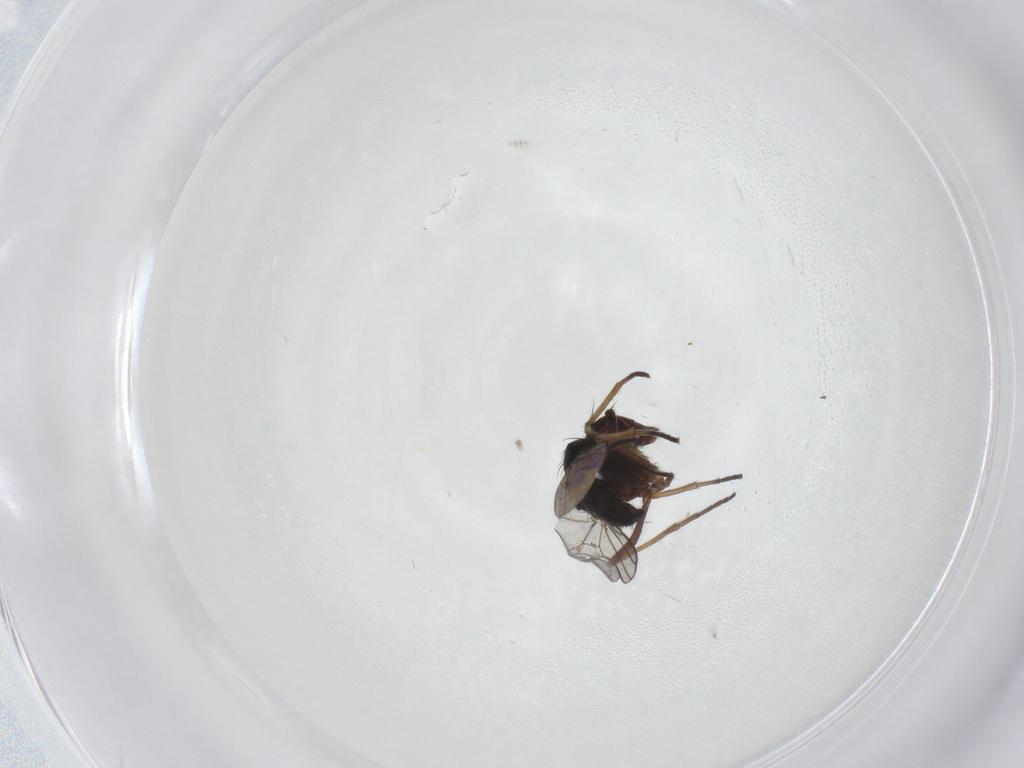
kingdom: Animalia
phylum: Arthropoda
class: Insecta
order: Diptera
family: Dolichopodidae
